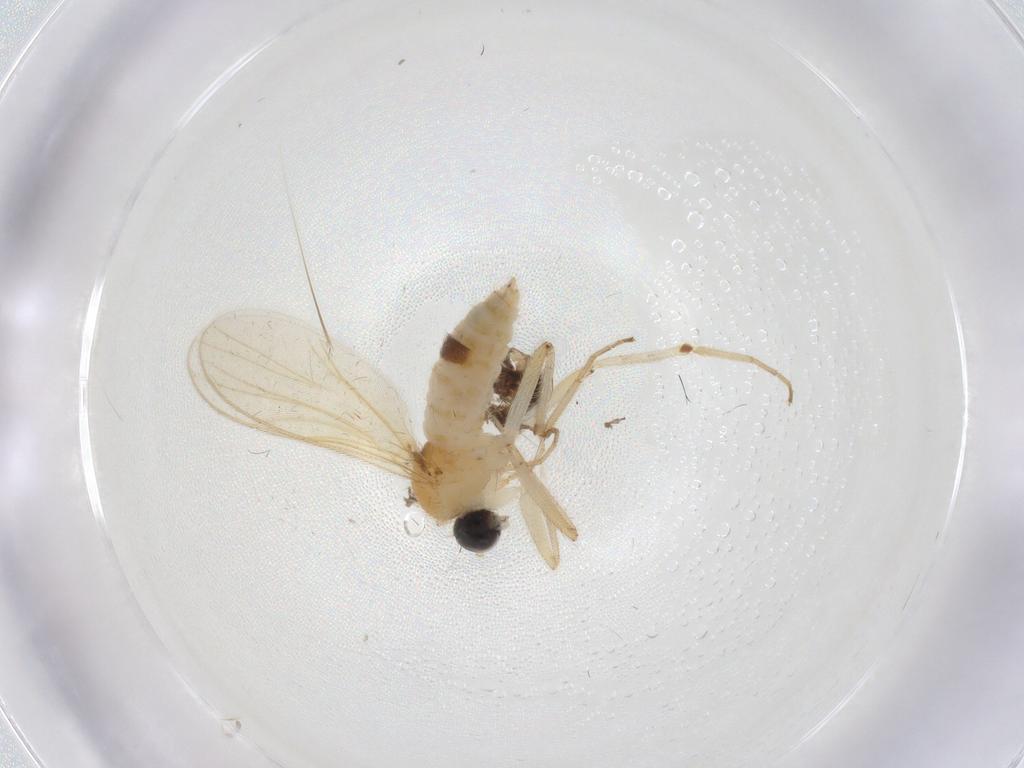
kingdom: Animalia
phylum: Arthropoda
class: Insecta
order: Diptera
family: Hybotidae
